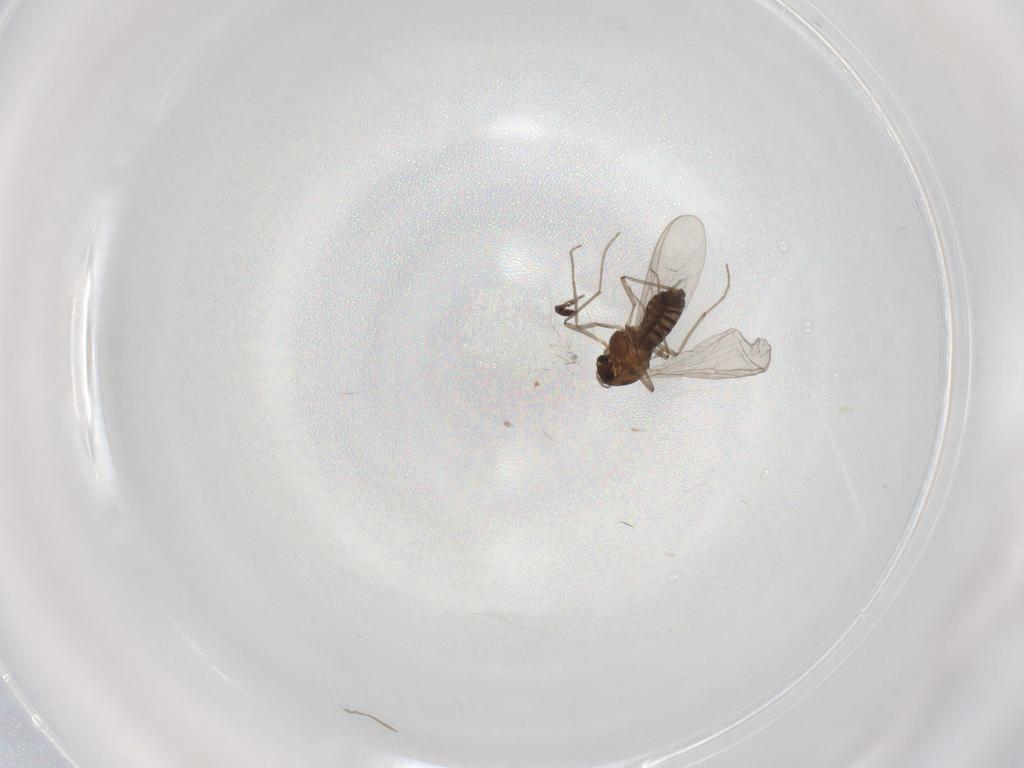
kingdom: Animalia
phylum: Arthropoda
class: Insecta
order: Diptera
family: Chironomidae
